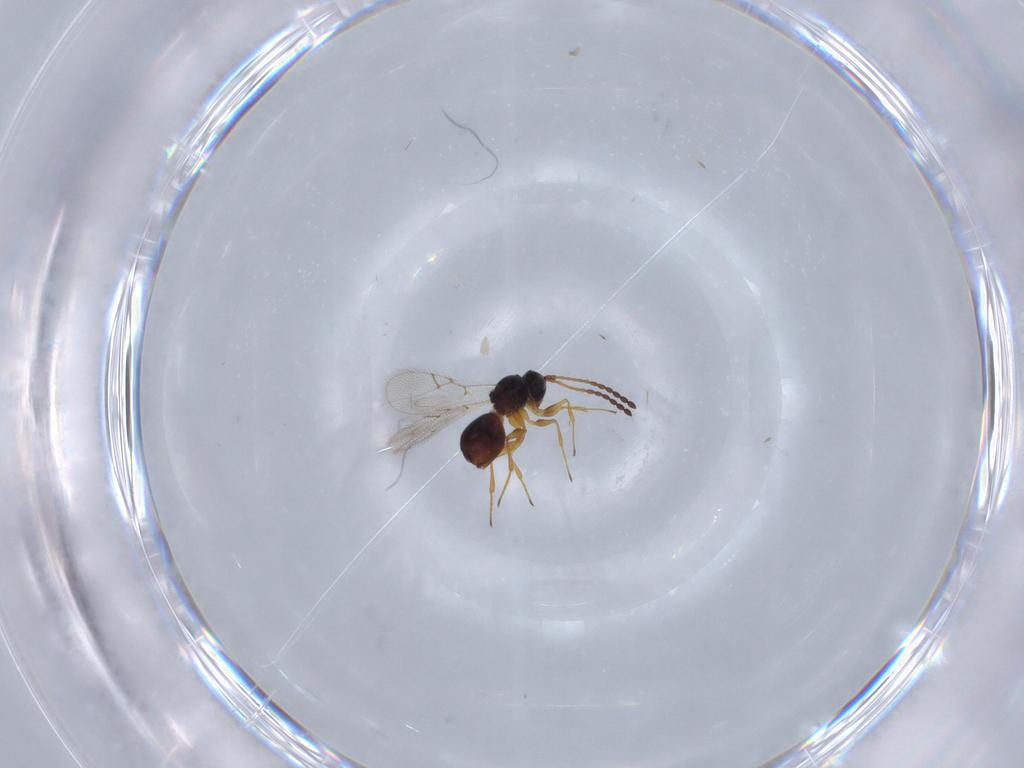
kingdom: Animalia
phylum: Arthropoda
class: Insecta
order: Hymenoptera
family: Figitidae
